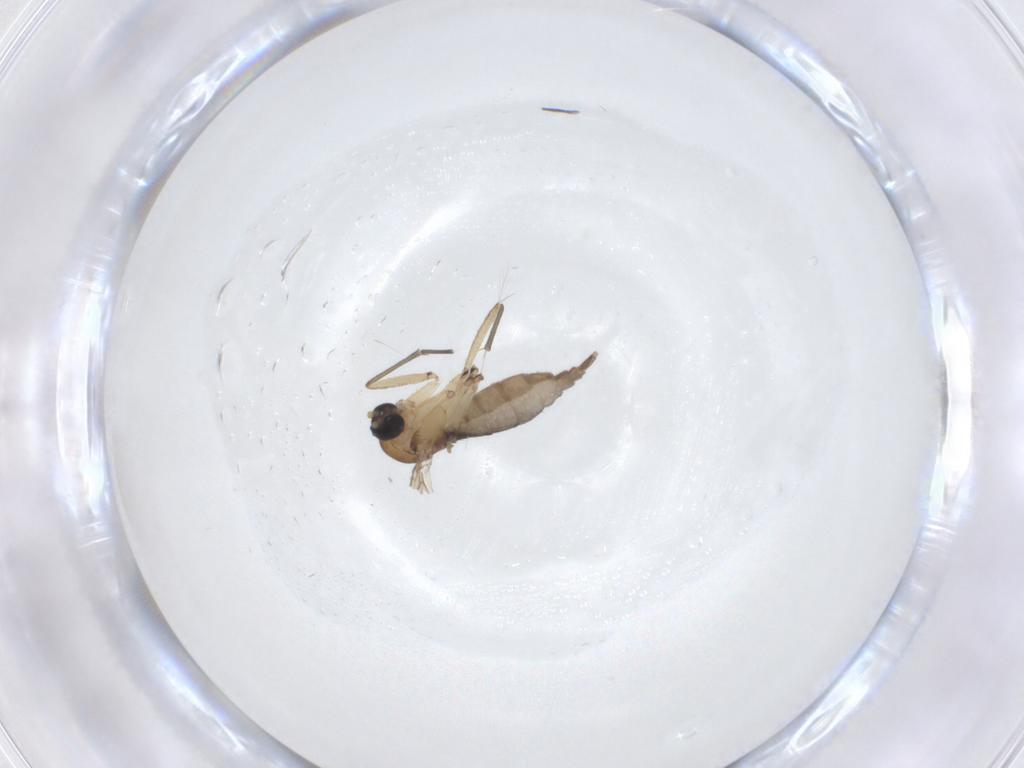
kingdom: Animalia
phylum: Arthropoda
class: Insecta
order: Diptera
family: Sciaridae
